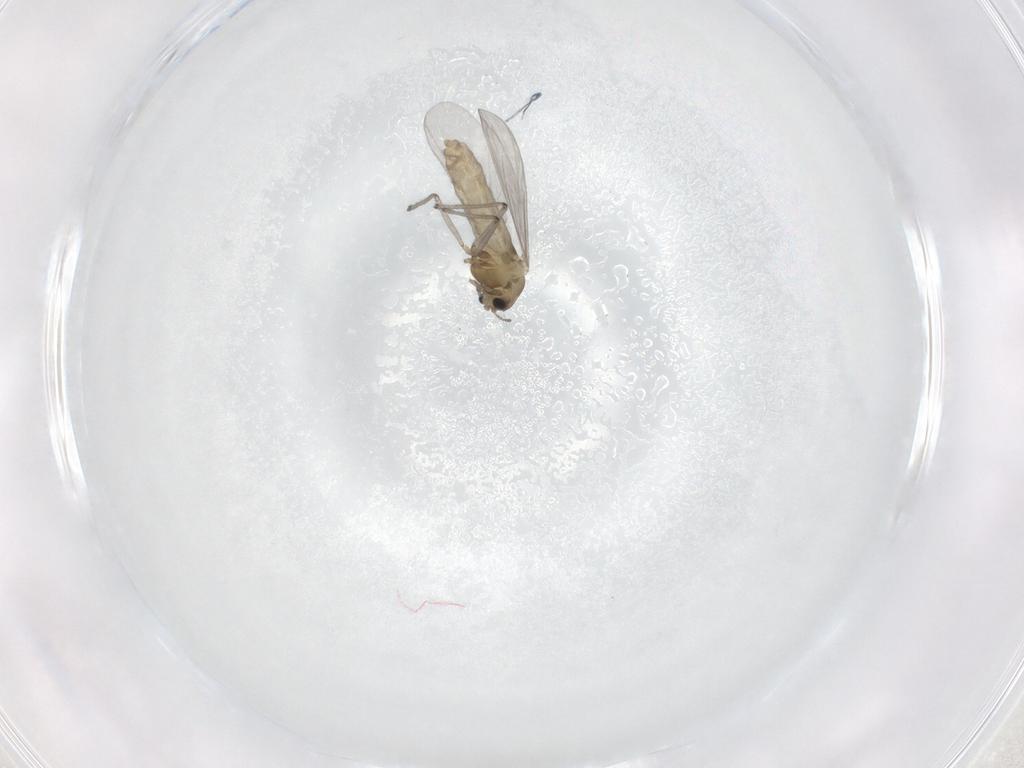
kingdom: Animalia
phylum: Arthropoda
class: Insecta
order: Diptera
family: Chironomidae
